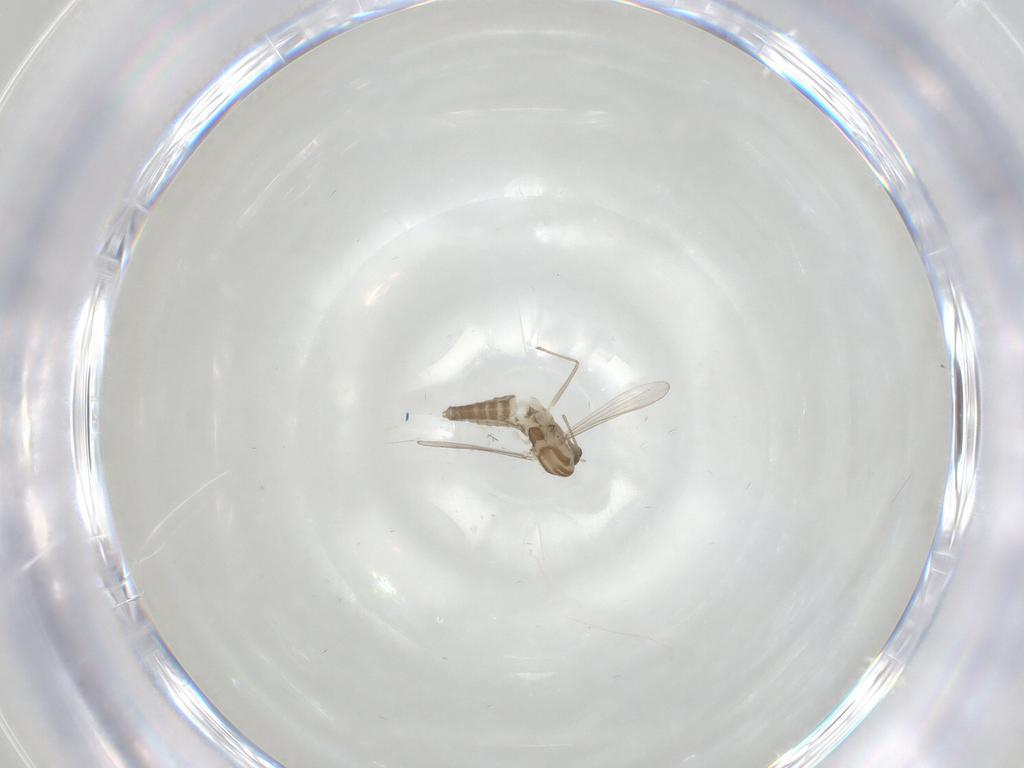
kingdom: Animalia
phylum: Arthropoda
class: Insecta
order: Diptera
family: Chironomidae
